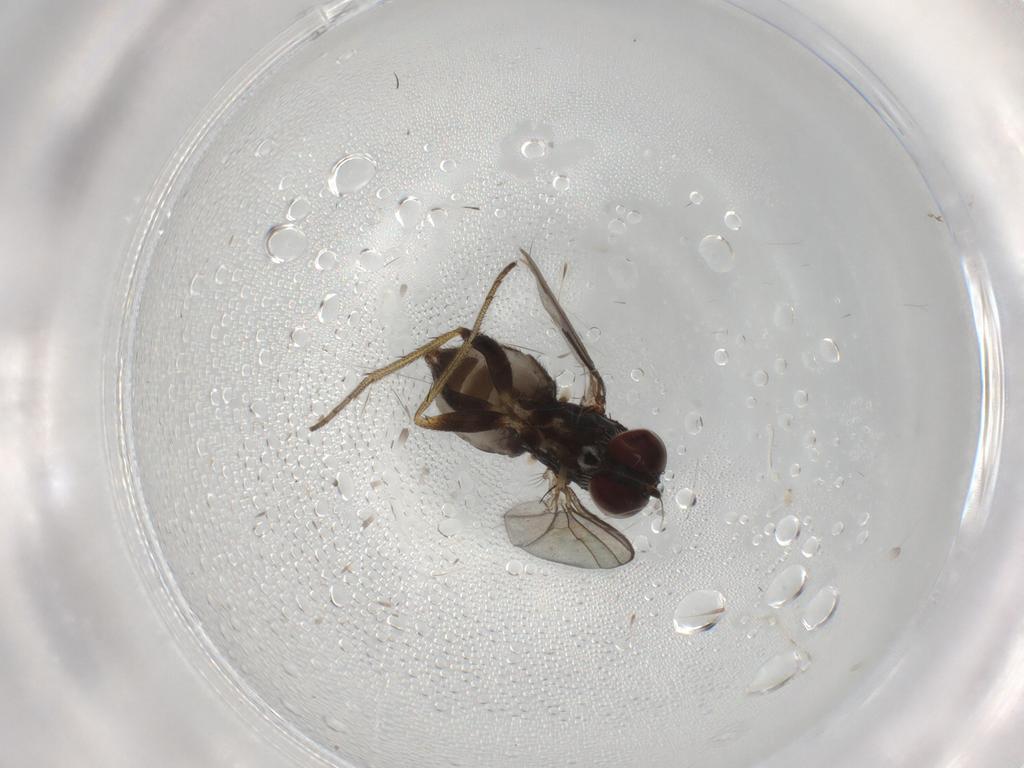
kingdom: Animalia
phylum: Arthropoda
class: Insecta
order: Diptera
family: Dolichopodidae
